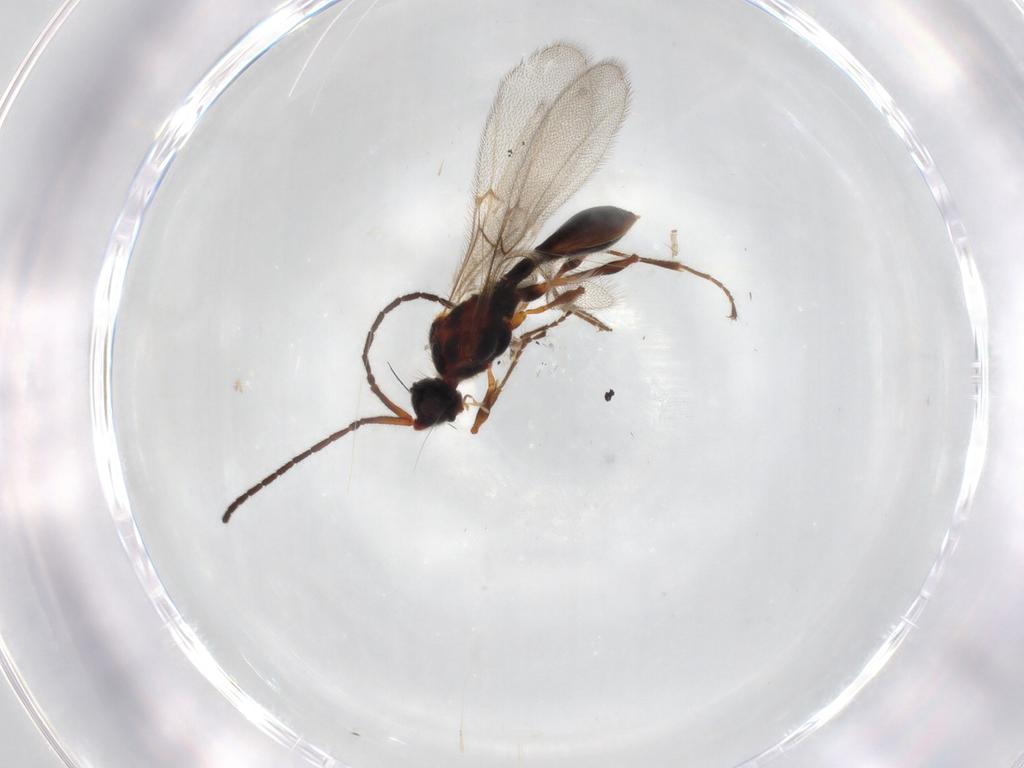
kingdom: Animalia
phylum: Arthropoda
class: Insecta
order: Hymenoptera
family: Diapriidae
